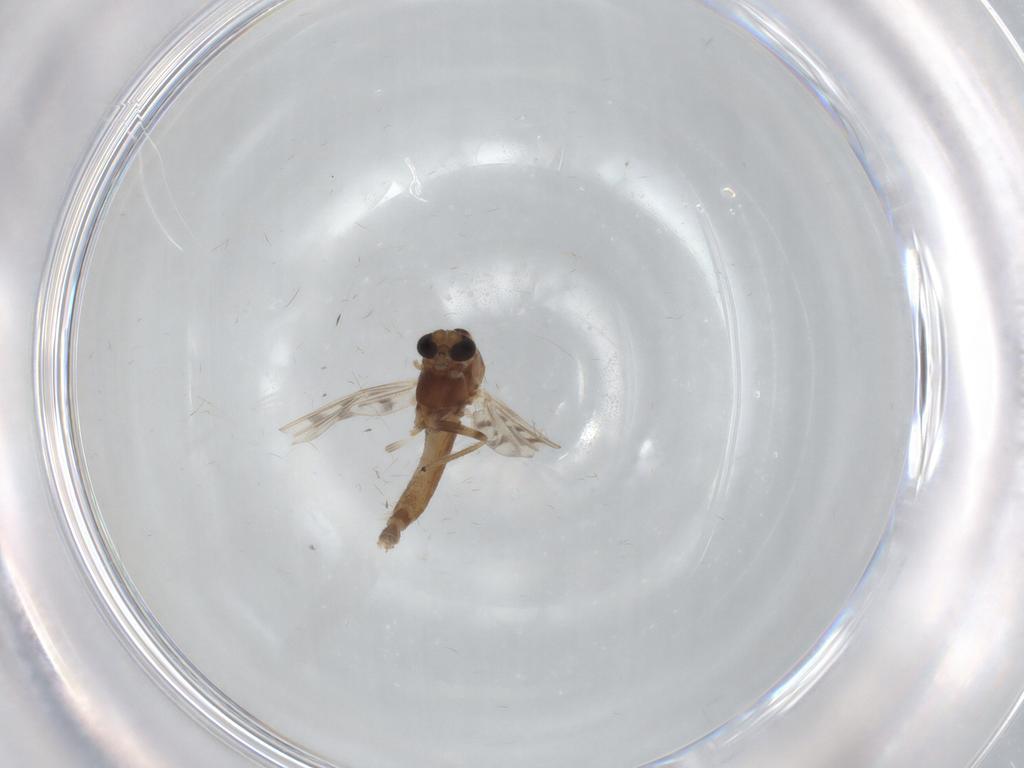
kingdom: Animalia
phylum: Arthropoda
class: Insecta
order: Diptera
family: Chironomidae
